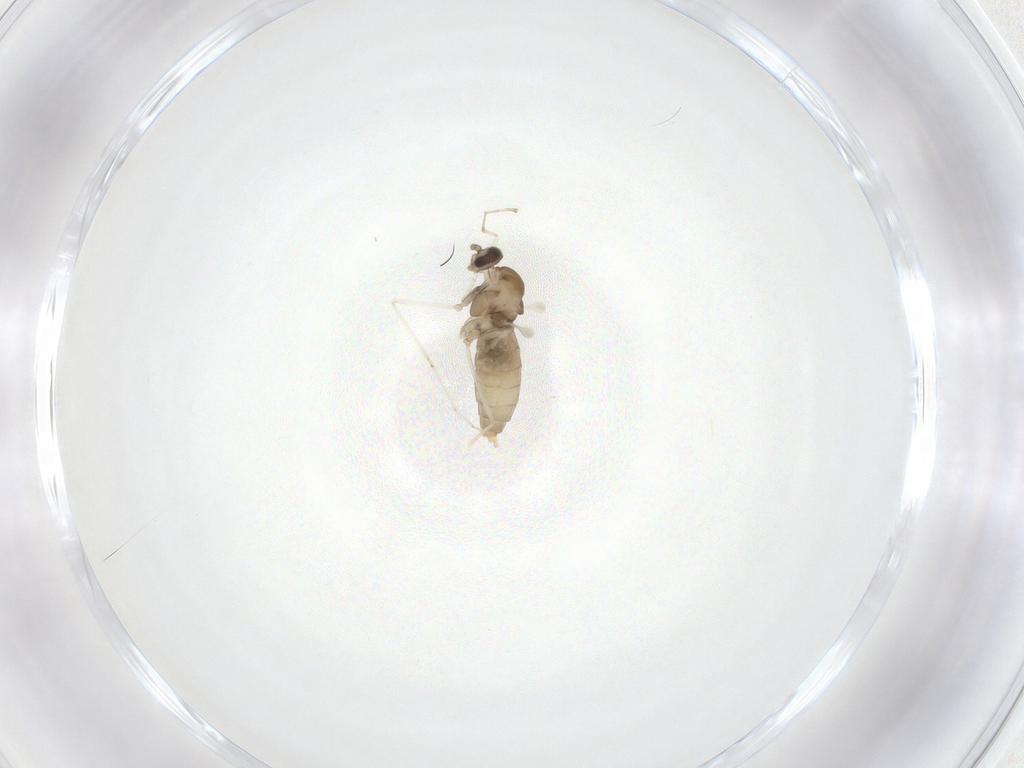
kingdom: Animalia
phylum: Arthropoda
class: Insecta
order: Diptera
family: Cecidomyiidae
